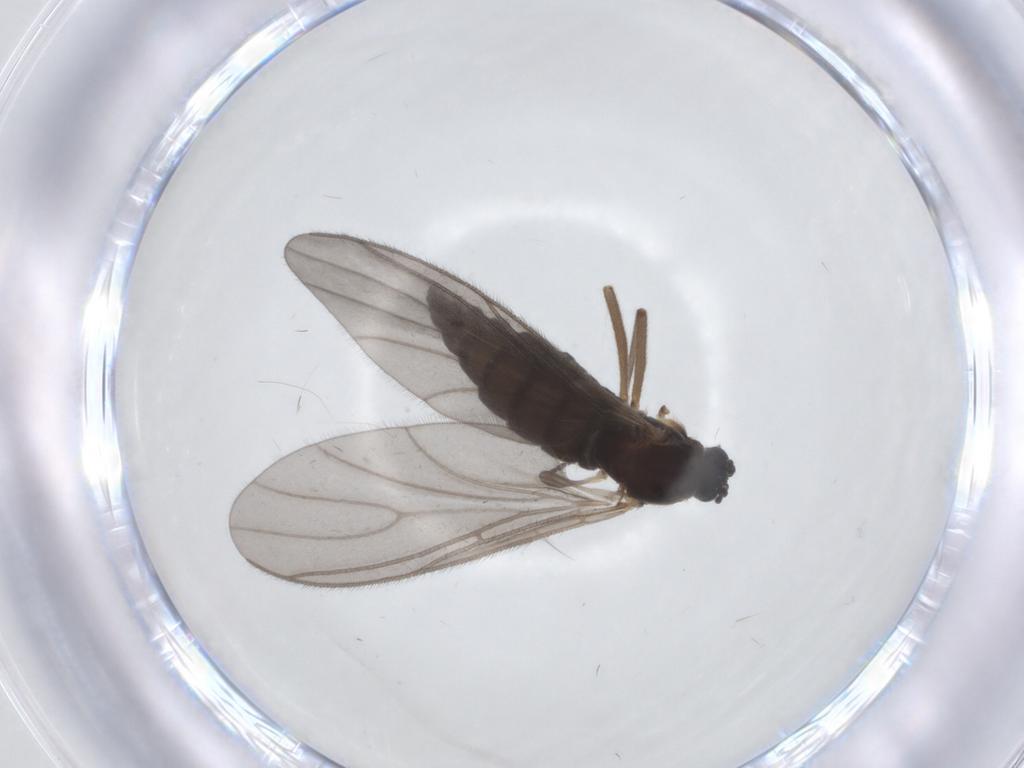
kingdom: Animalia
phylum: Arthropoda
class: Insecta
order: Diptera
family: Sciaridae
